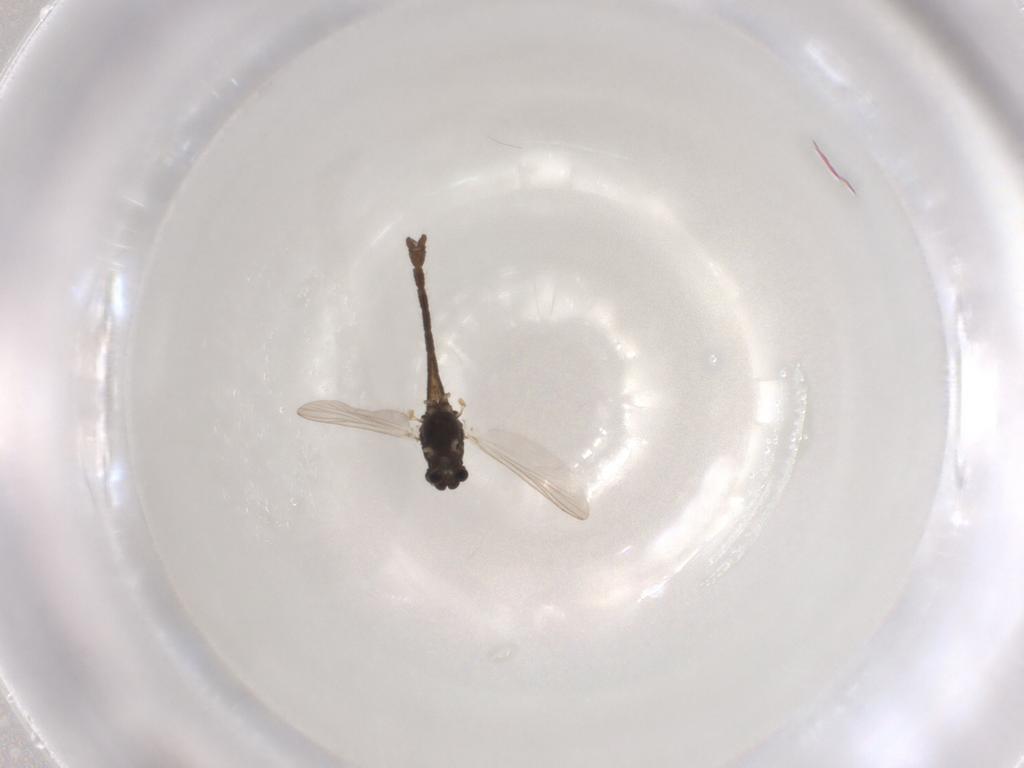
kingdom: Animalia
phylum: Arthropoda
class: Insecta
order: Diptera
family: Chironomidae
